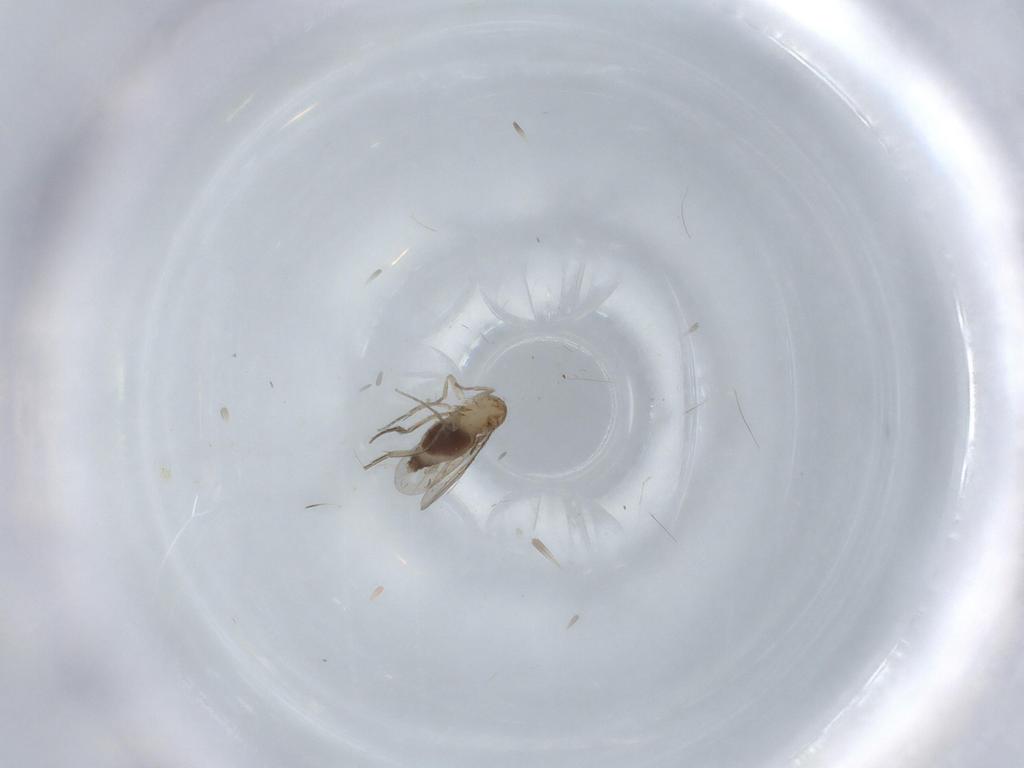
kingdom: Animalia
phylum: Arthropoda
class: Insecta
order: Diptera
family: Phoridae
